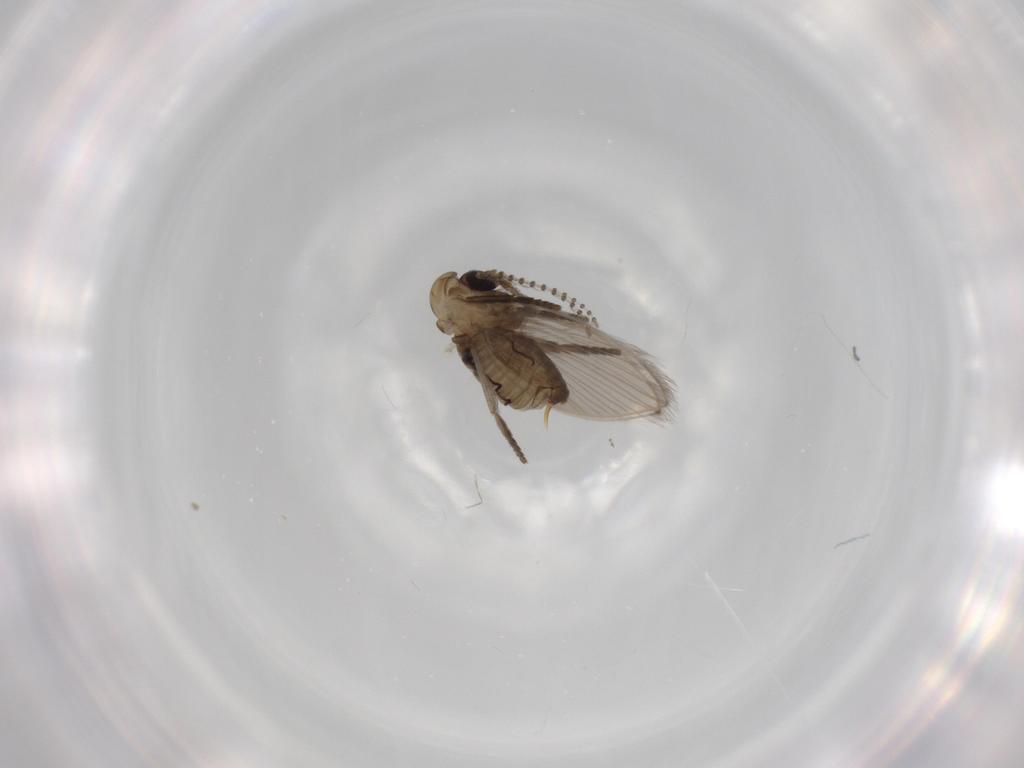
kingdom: Animalia
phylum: Arthropoda
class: Insecta
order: Diptera
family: Psychodidae
